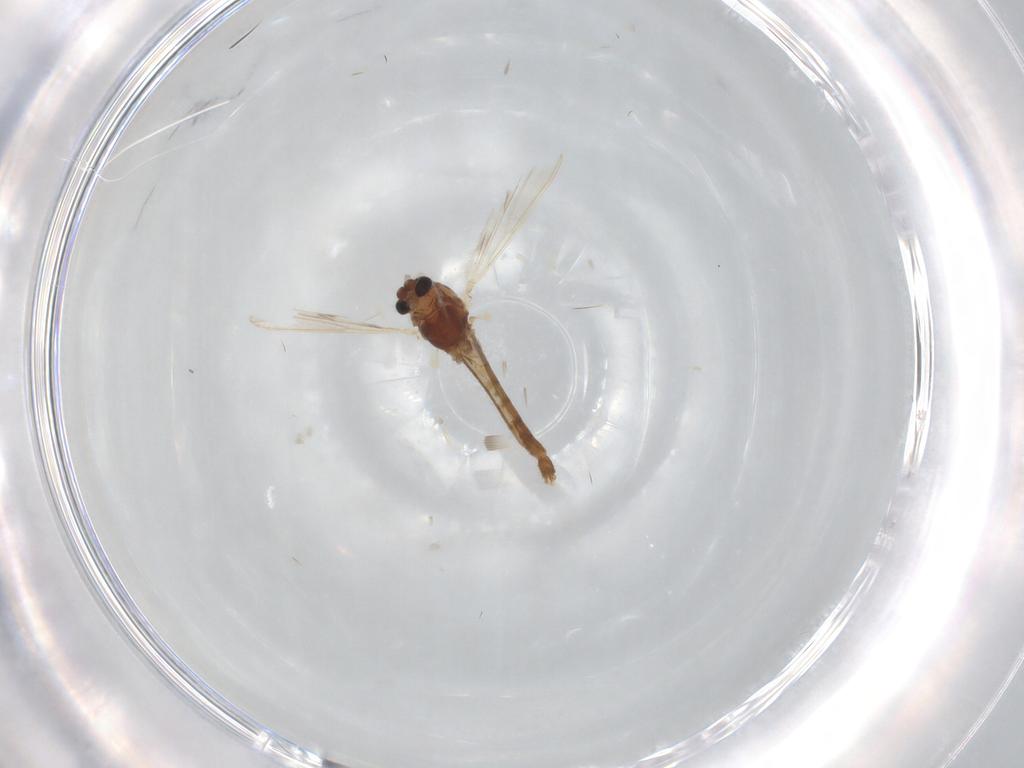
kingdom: Animalia
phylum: Arthropoda
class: Insecta
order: Diptera
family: Chironomidae
